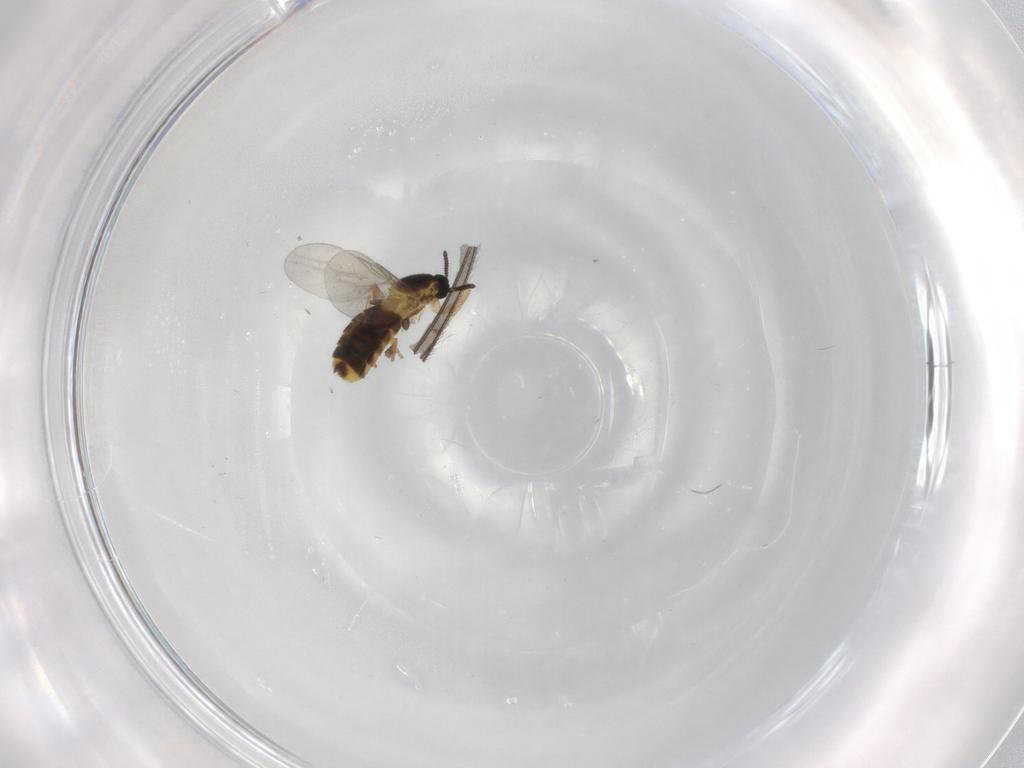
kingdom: Animalia
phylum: Arthropoda
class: Insecta
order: Diptera
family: Scatopsidae
